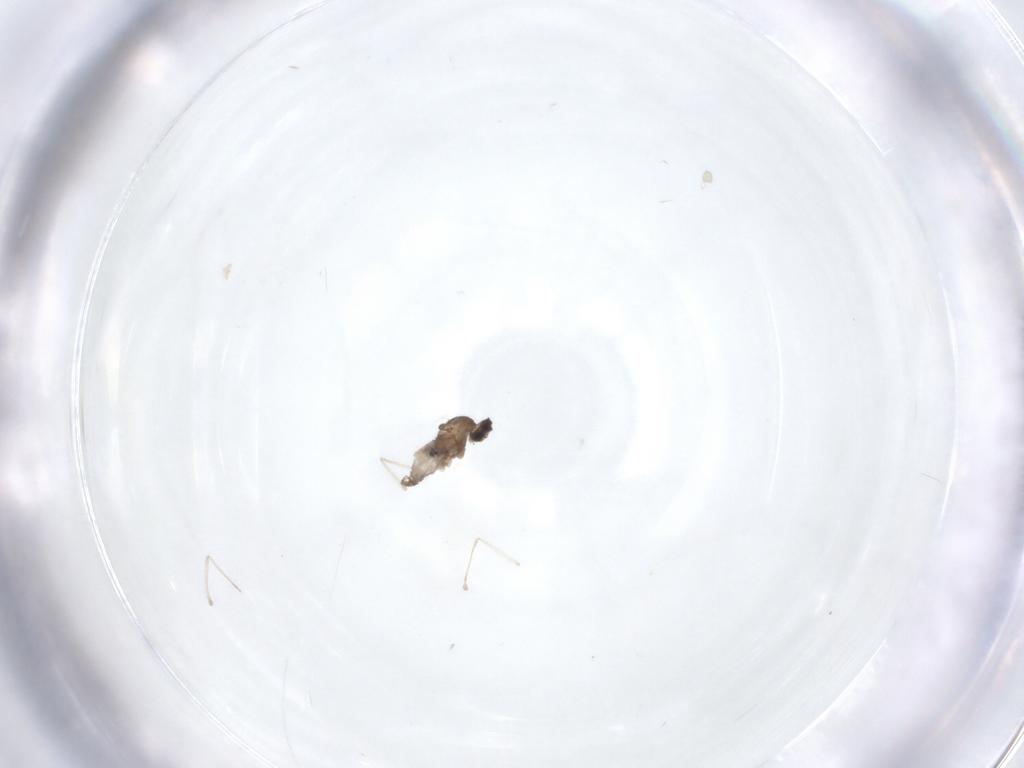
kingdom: Animalia
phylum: Arthropoda
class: Insecta
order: Diptera
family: Cecidomyiidae
